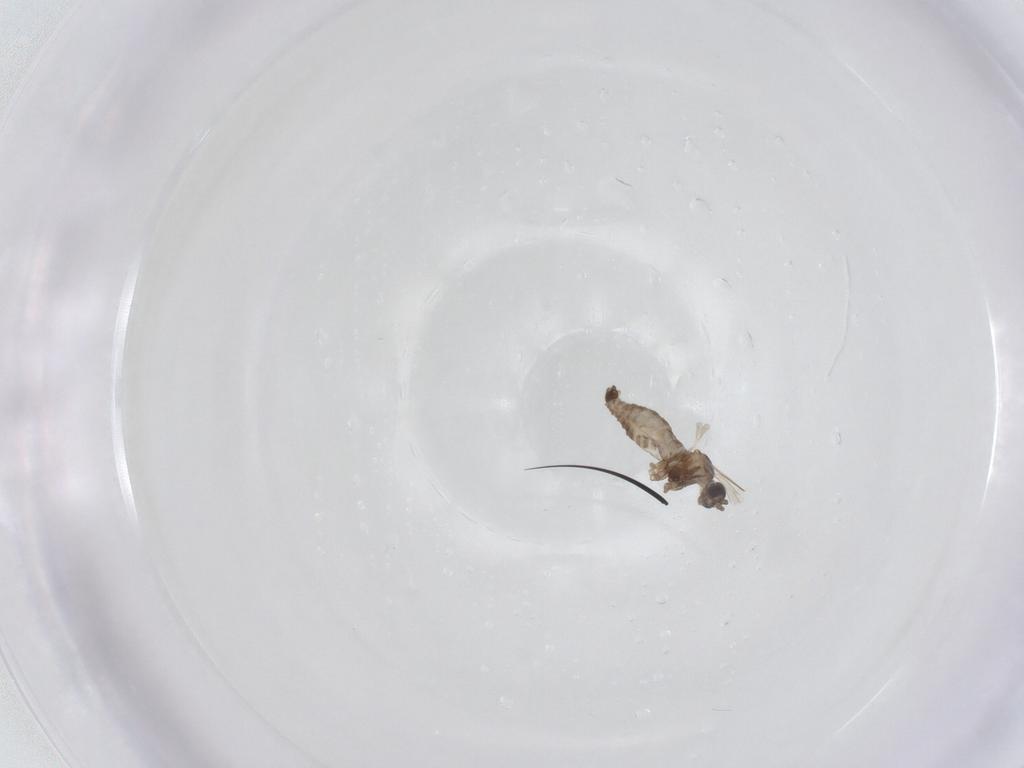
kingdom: Animalia
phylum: Arthropoda
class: Insecta
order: Diptera
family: Cecidomyiidae
